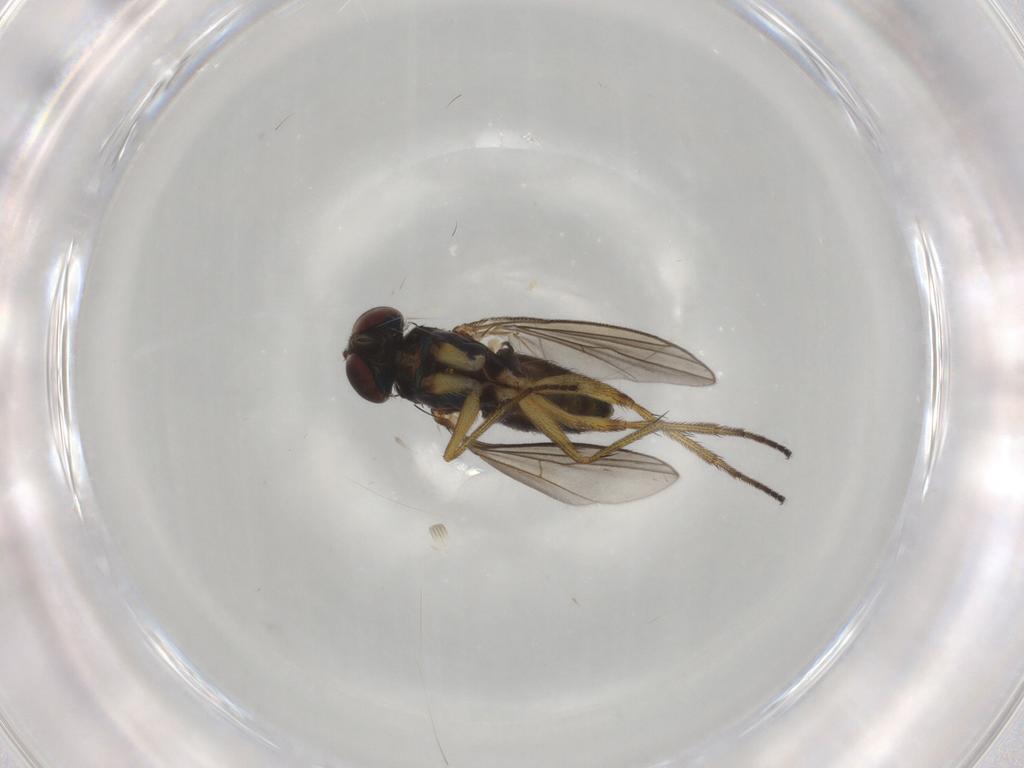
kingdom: Animalia
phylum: Arthropoda
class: Insecta
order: Diptera
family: Dolichopodidae
